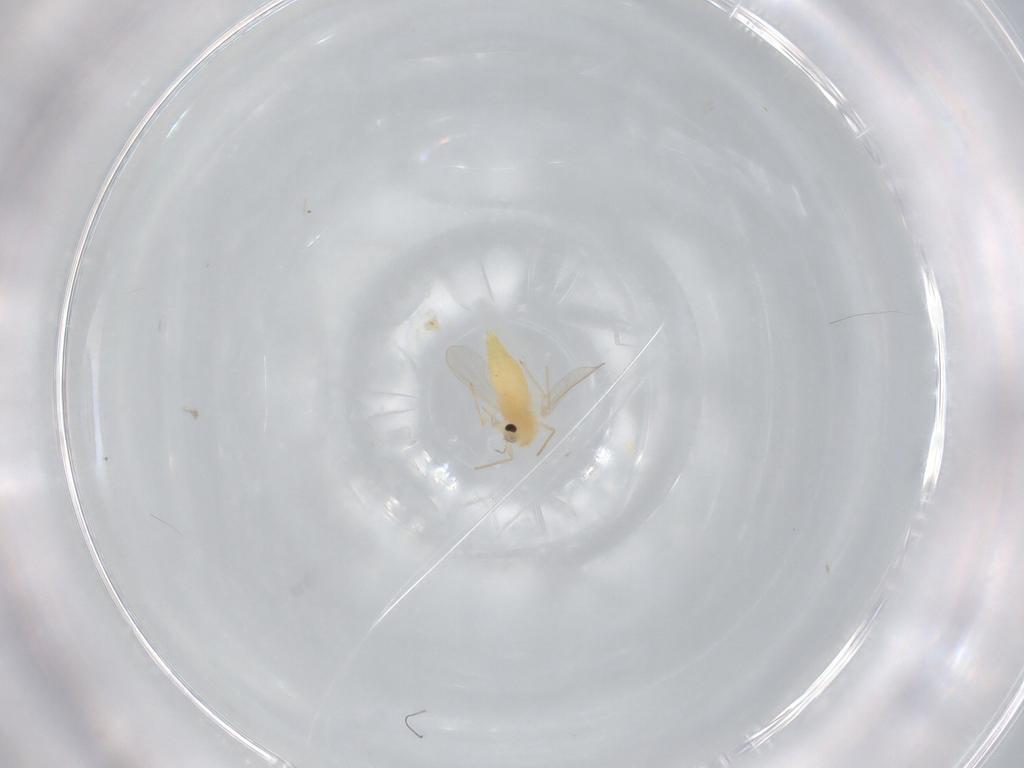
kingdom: Animalia
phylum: Arthropoda
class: Insecta
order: Diptera
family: Chironomidae
